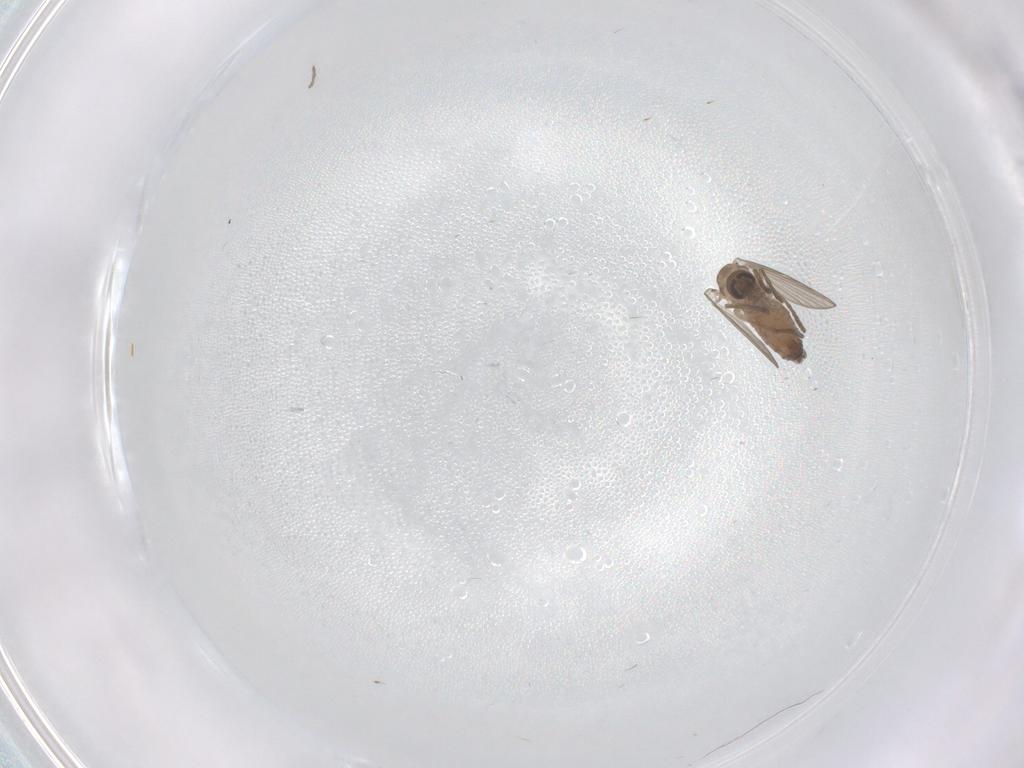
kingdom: Animalia
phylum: Arthropoda
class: Insecta
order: Diptera
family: Psychodidae
